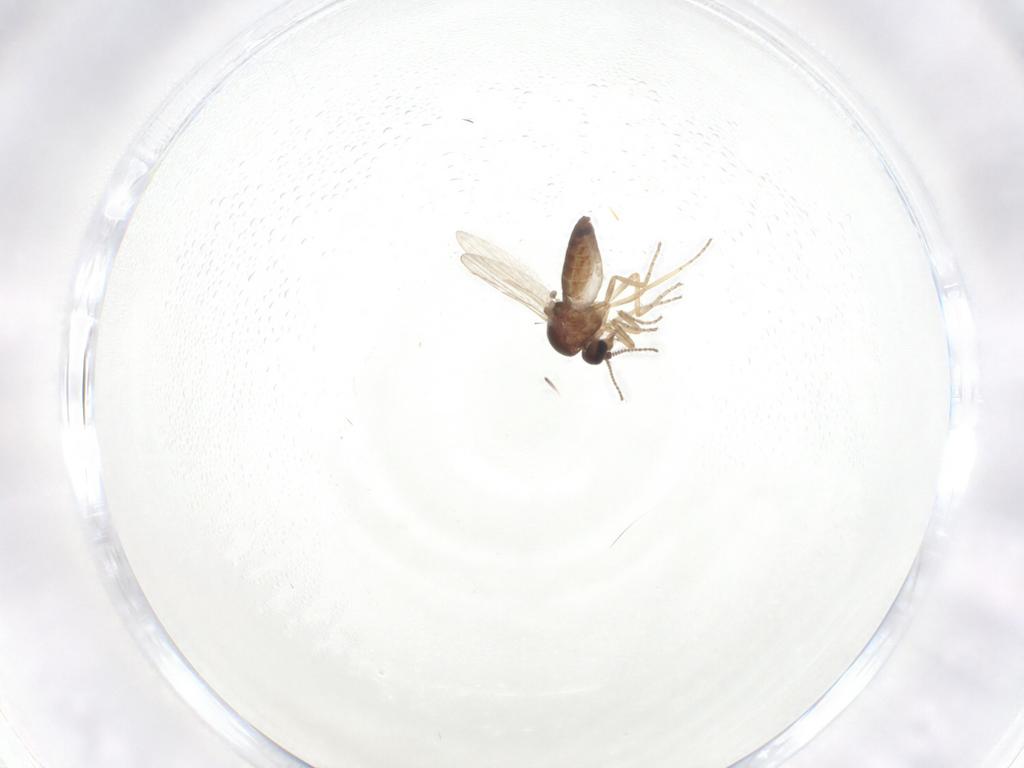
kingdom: Animalia
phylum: Arthropoda
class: Insecta
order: Diptera
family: Ceratopogonidae
